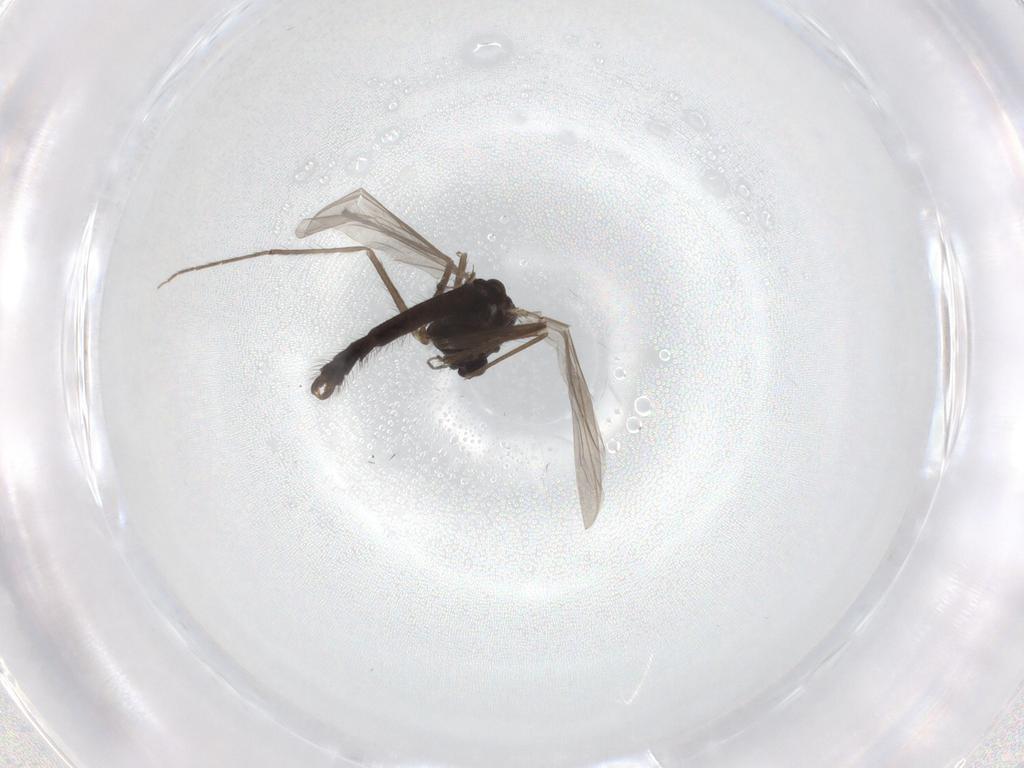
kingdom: Animalia
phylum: Arthropoda
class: Insecta
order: Diptera
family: Chironomidae
